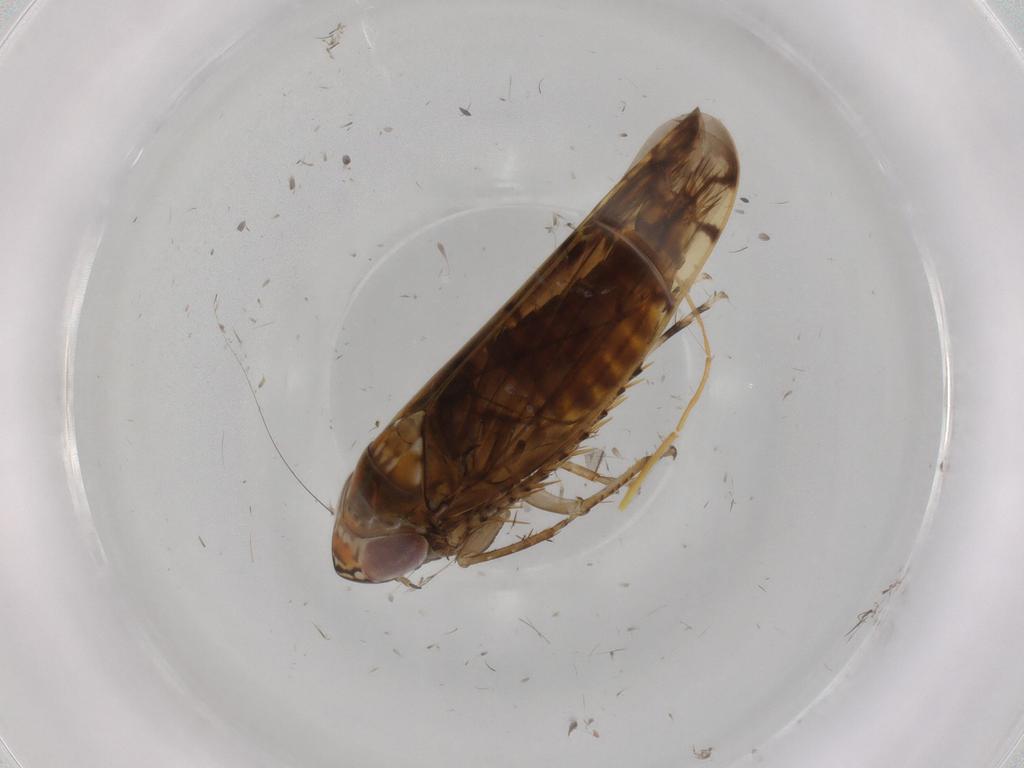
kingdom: Animalia
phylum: Arthropoda
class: Insecta
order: Hemiptera
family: Cicadellidae
